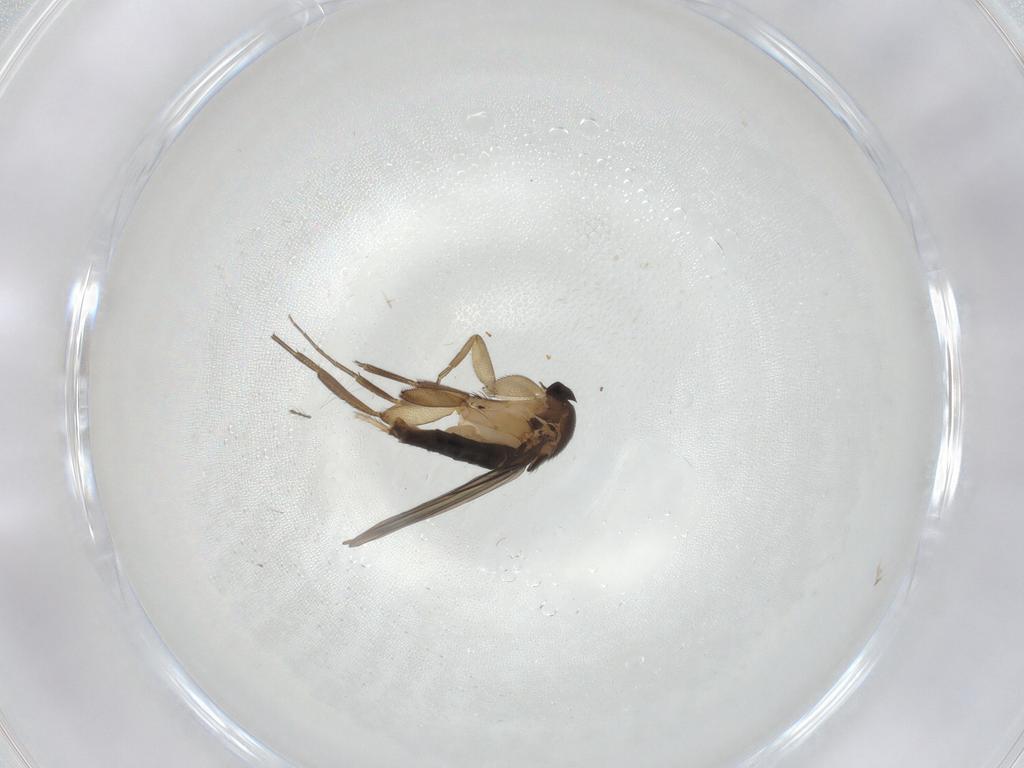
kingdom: Animalia
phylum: Arthropoda
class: Insecta
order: Diptera
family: Phoridae
